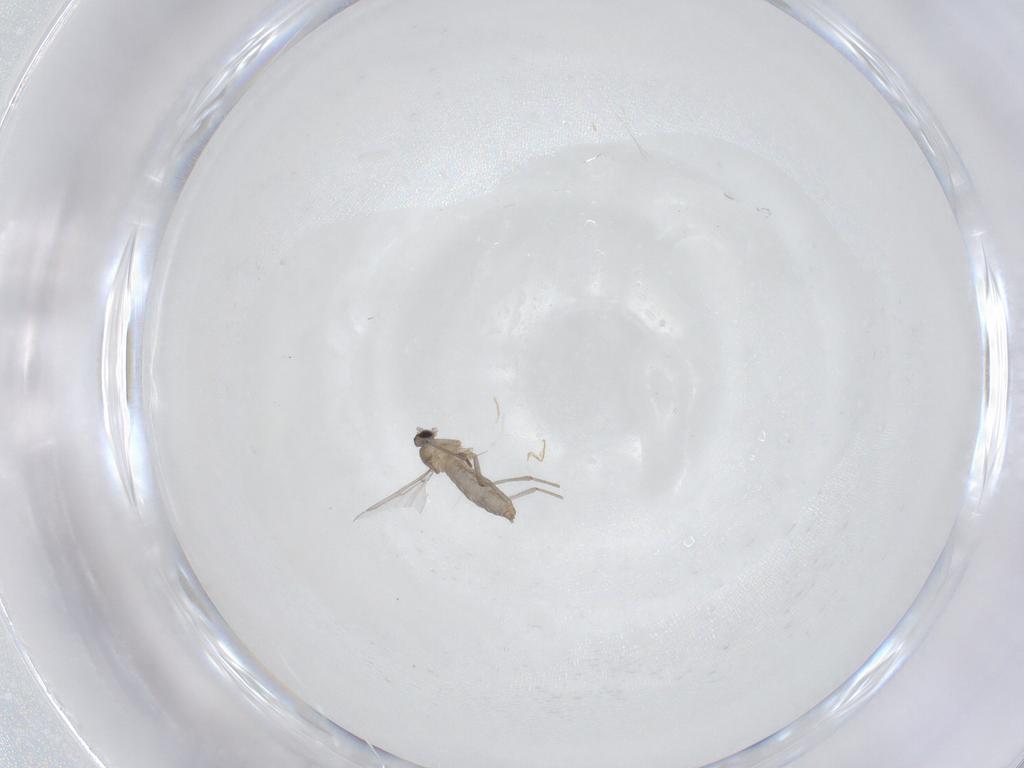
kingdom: Animalia
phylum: Arthropoda
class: Insecta
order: Diptera
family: Cecidomyiidae
